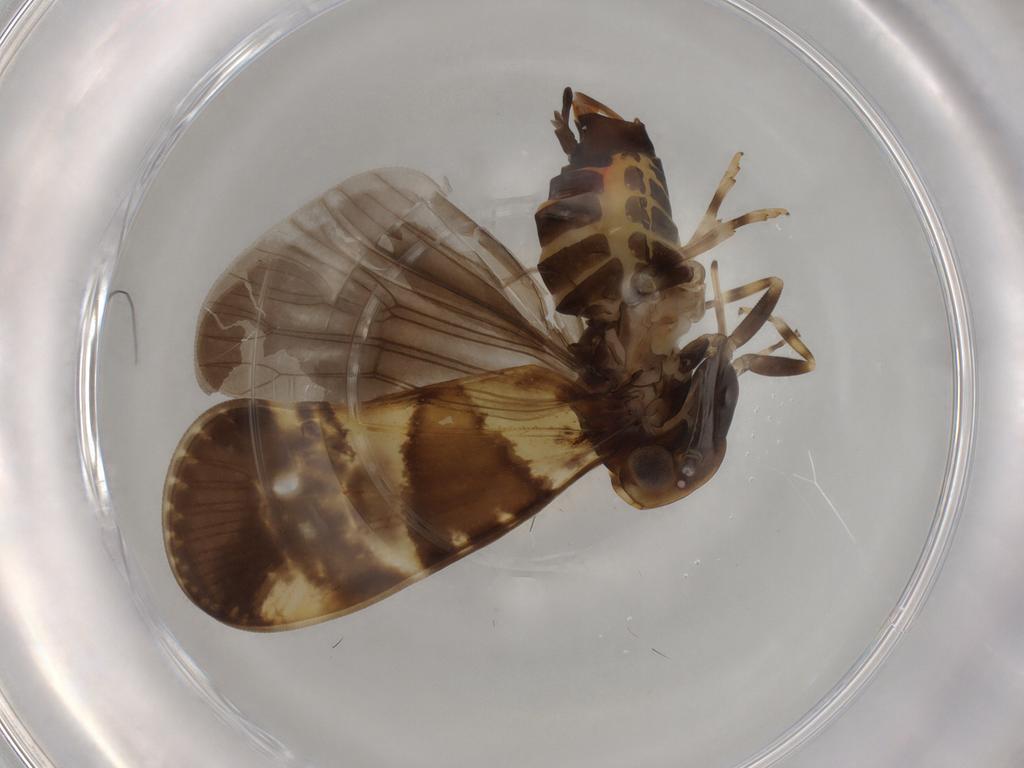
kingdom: Animalia
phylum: Arthropoda
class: Insecta
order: Hemiptera
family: Cixiidae
